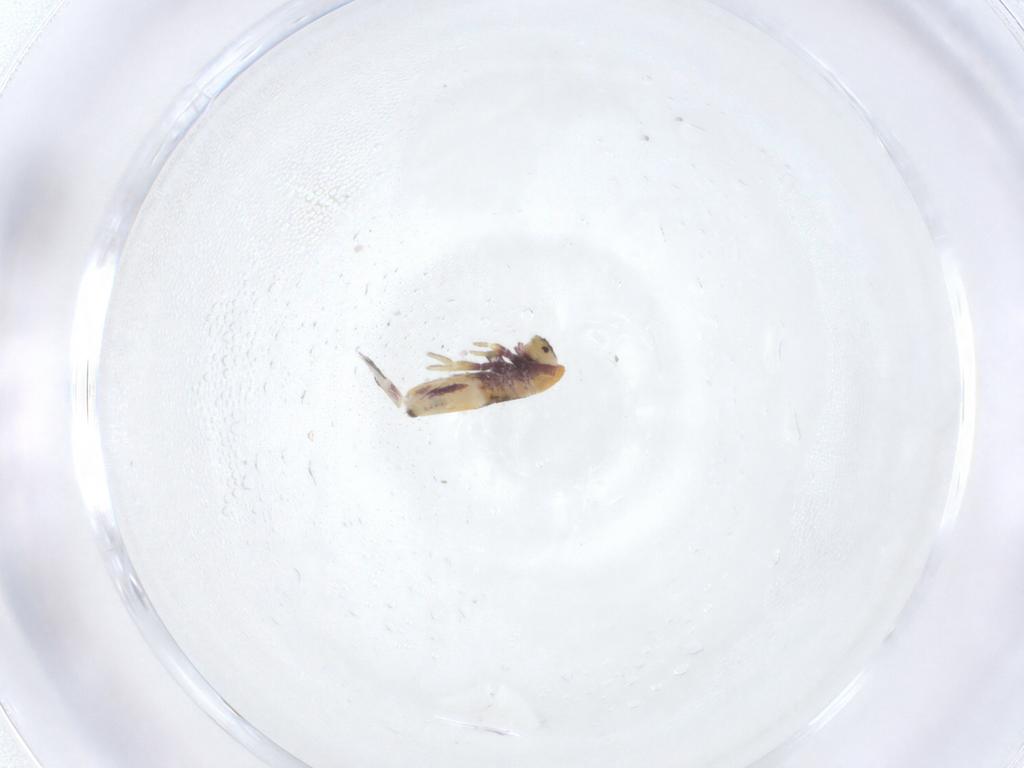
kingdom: Animalia
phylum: Arthropoda
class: Collembola
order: Entomobryomorpha
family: Entomobryidae
